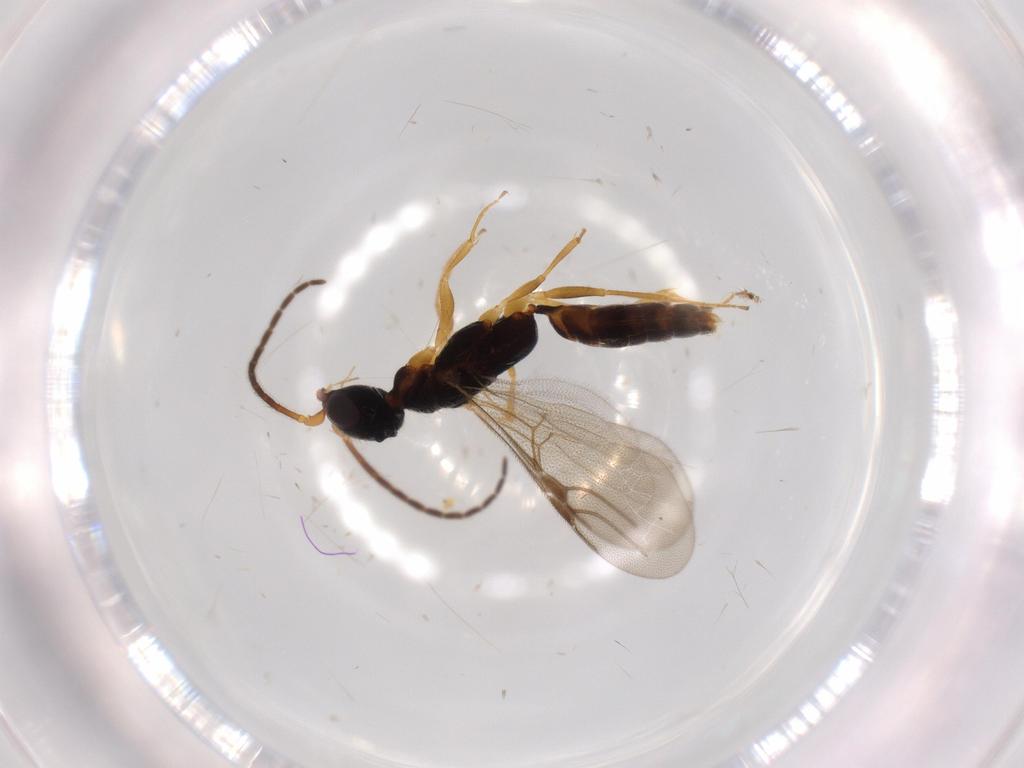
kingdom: Animalia
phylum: Arthropoda
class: Insecta
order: Hymenoptera
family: Bethylidae
